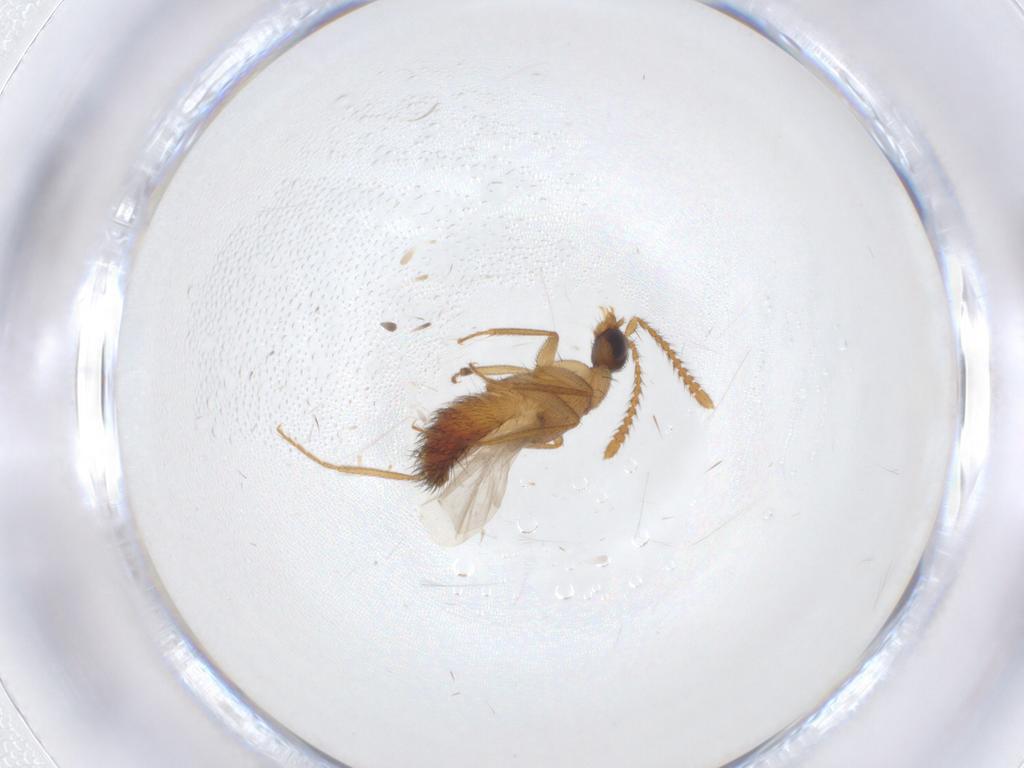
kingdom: Animalia
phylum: Arthropoda
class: Insecta
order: Coleoptera
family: Staphylinidae
